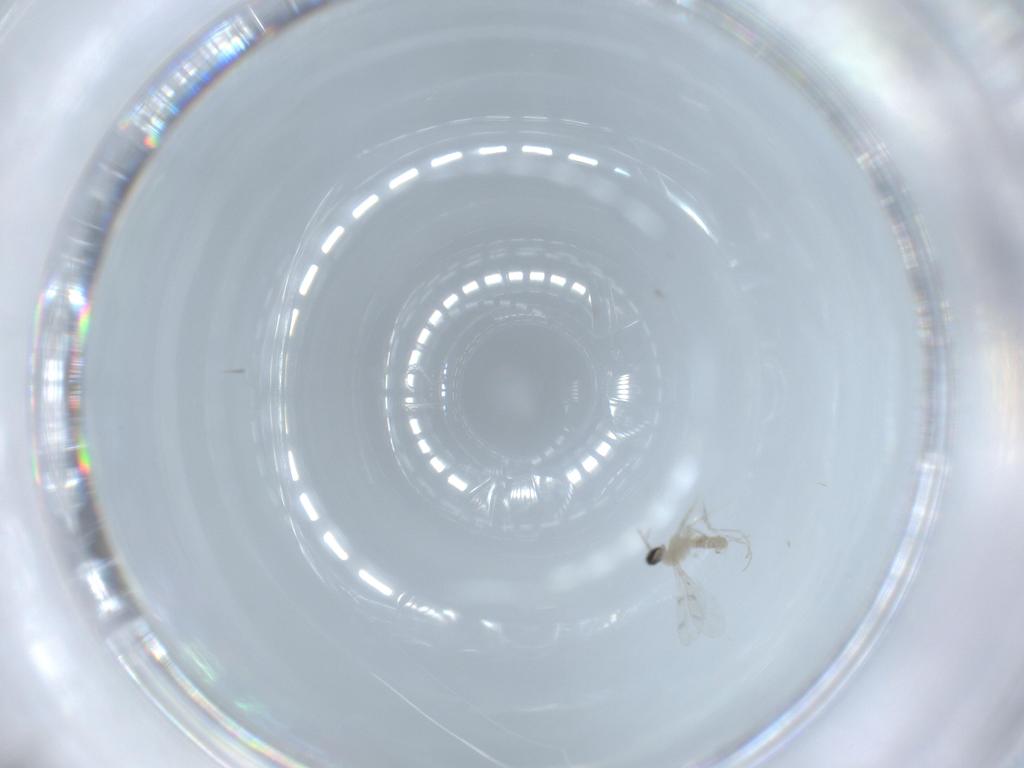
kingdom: Animalia
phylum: Arthropoda
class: Insecta
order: Diptera
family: Cecidomyiidae
